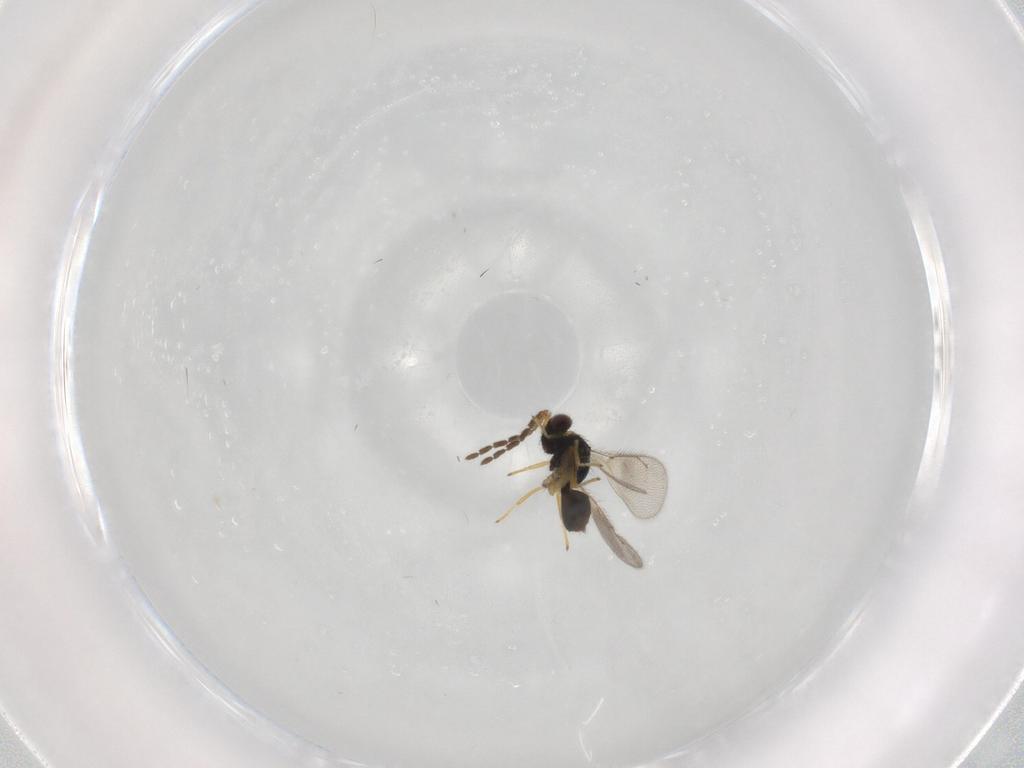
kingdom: Animalia
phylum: Arthropoda
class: Insecta
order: Hymenoptera
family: Eulophidae
